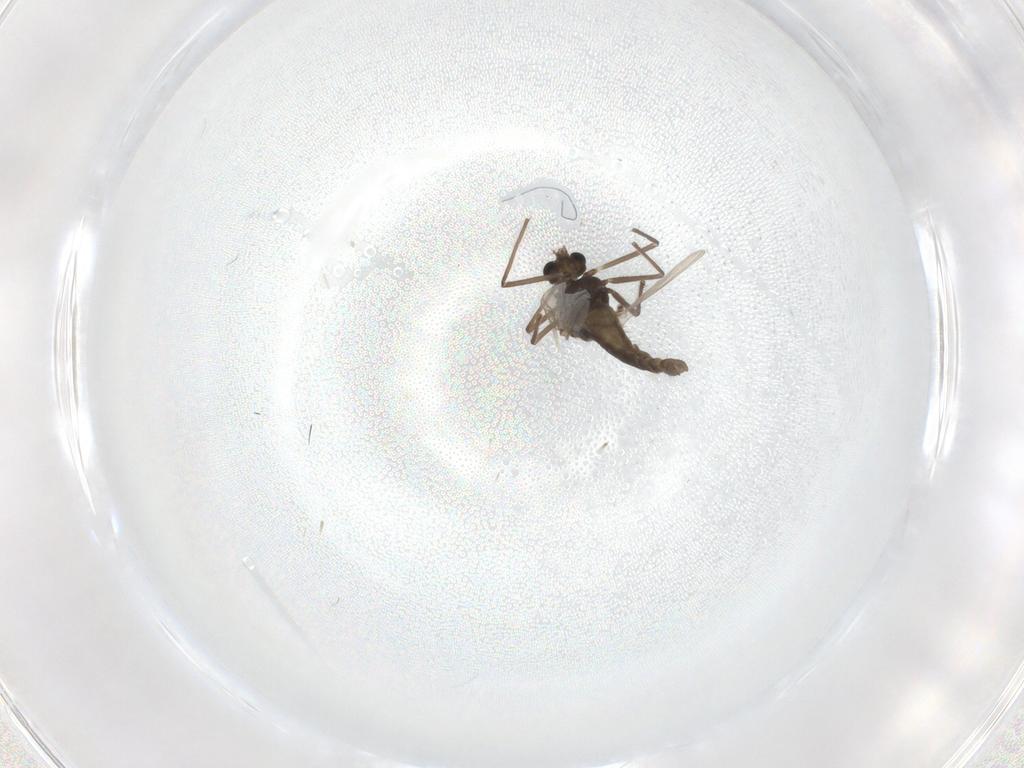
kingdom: Animalia
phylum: Arthropoda
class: Insecta
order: Diptera
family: Chironomidae
